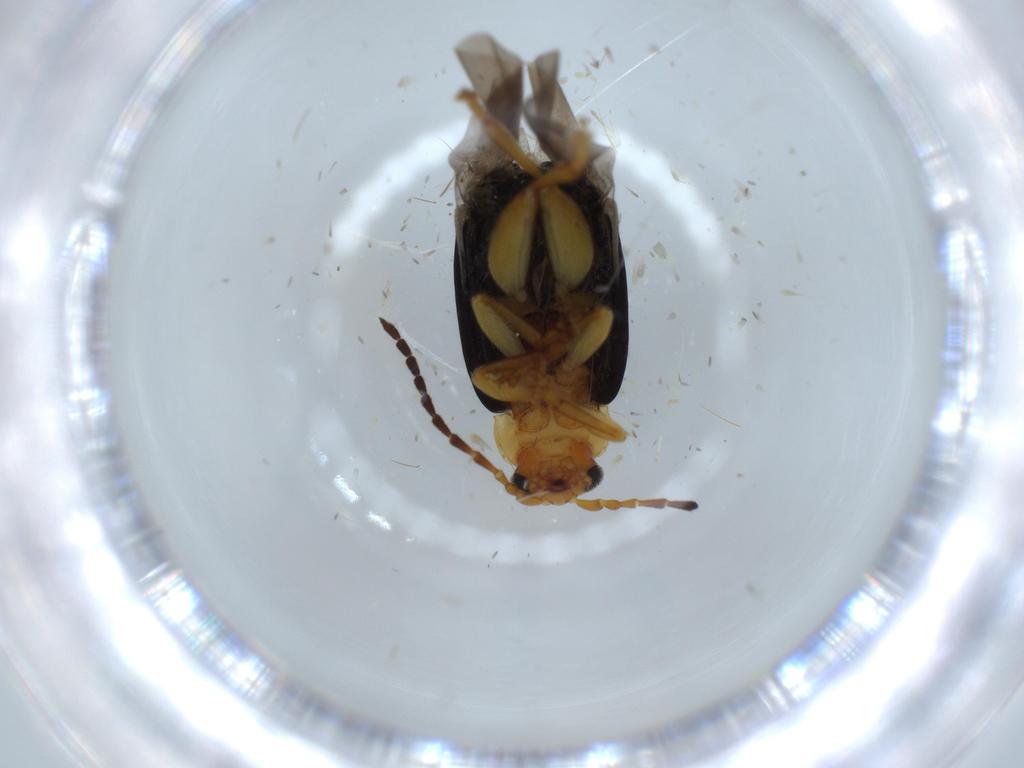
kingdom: Animalia
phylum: Arthropoda
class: Insecta
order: Coleoptera
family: Chrysomelidae
